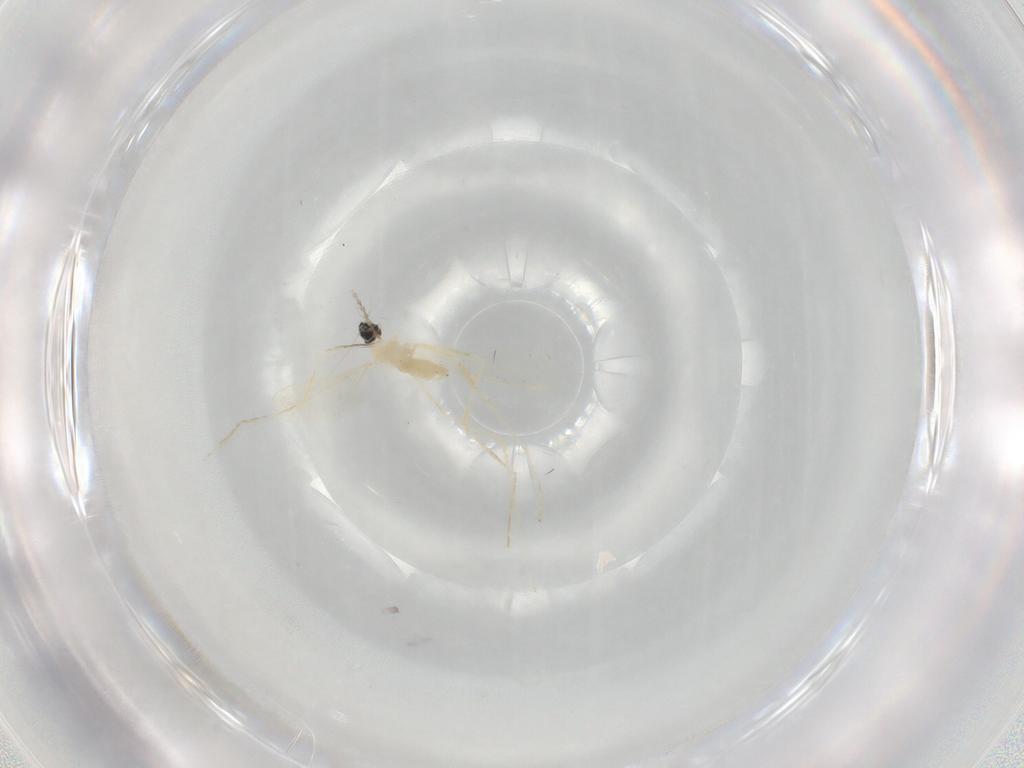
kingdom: Animalia
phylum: Arthropoda
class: Insecta
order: Diptera
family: Cecidomyiidae
